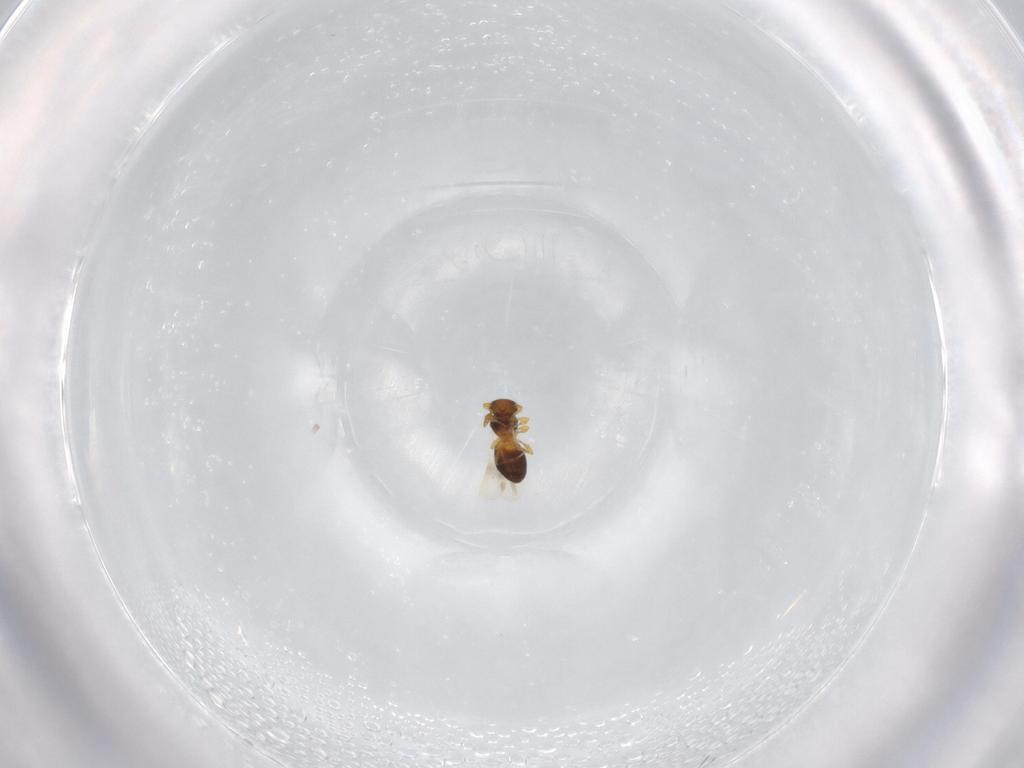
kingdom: Animalia
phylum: Arthropoda
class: Insecta
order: Hymenoptera
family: Platygastridae
